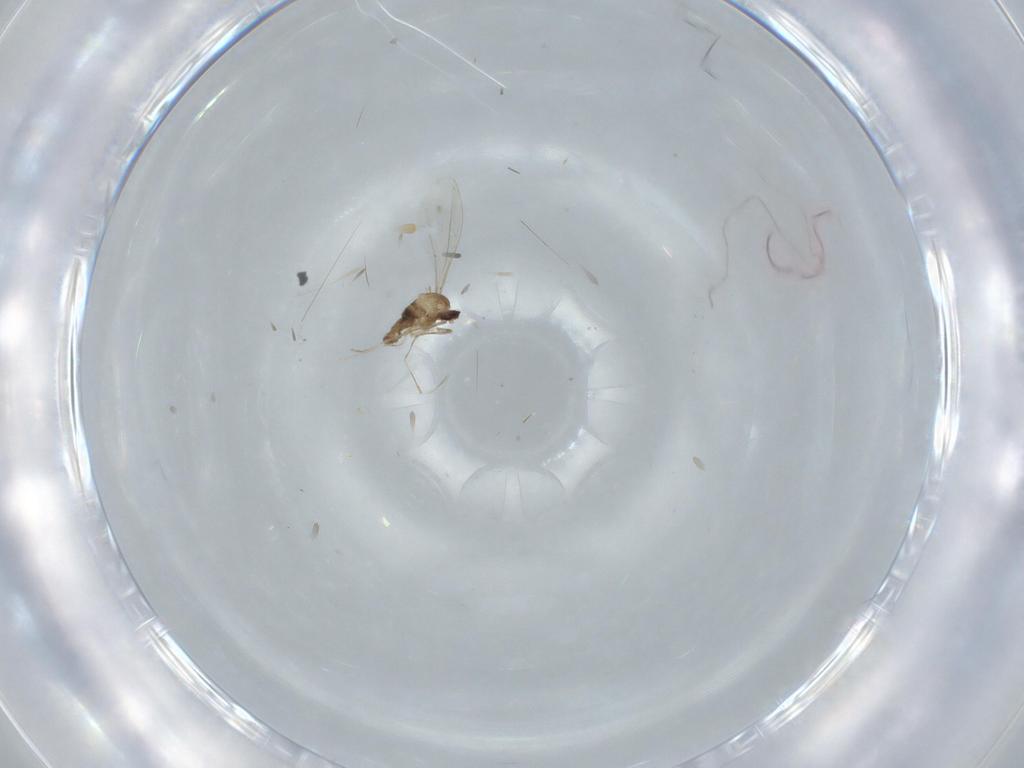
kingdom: Animalia
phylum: Arthropoda
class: Insecta
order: Diptera
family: Cecidomyiidae
